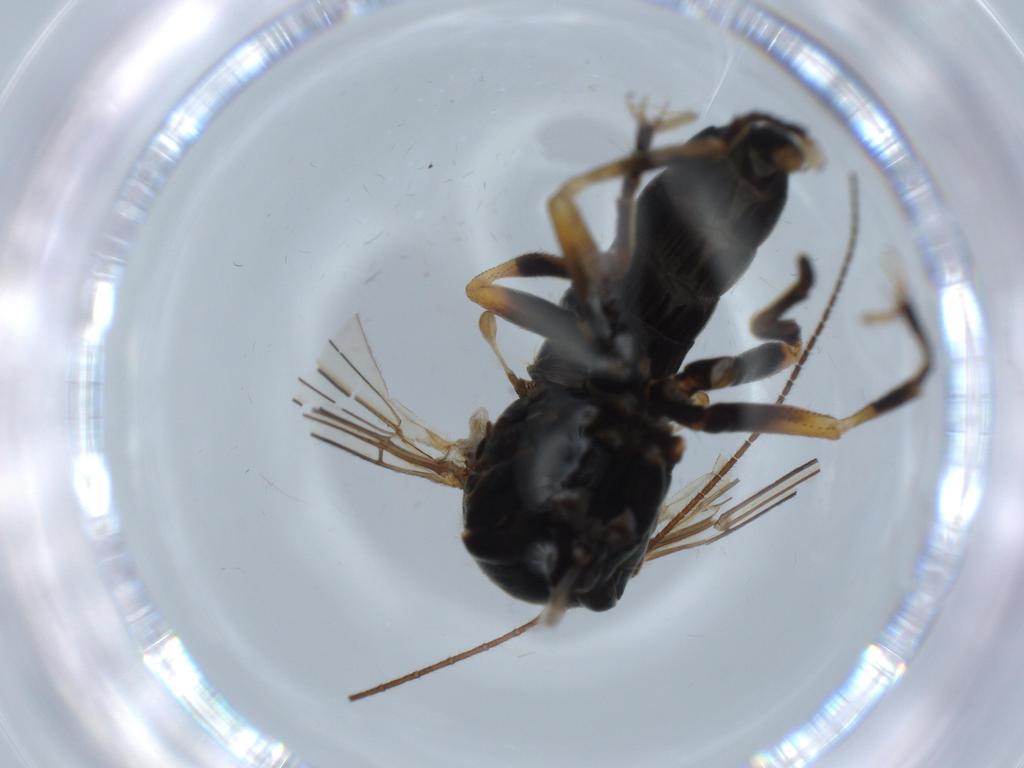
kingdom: Animalia
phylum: Arthropoda
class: Insecta
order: Diptera
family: Pipunculidae
